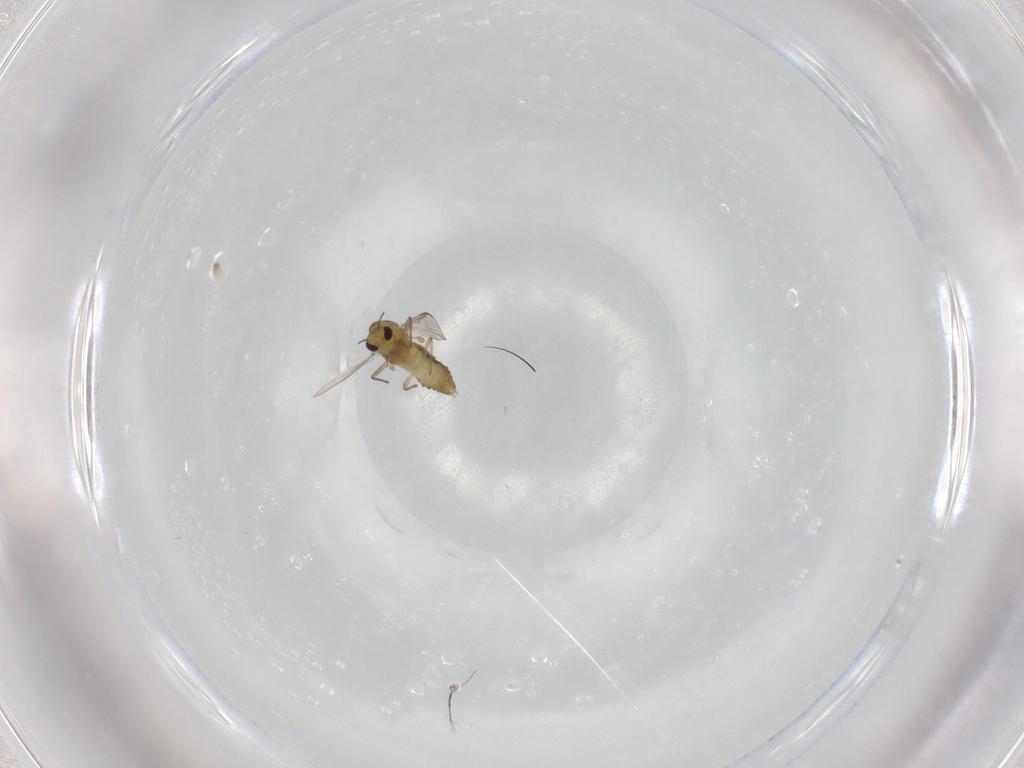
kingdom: Animalia
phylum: Arthropoda
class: Insecta
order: Diptera
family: Chironomidae
